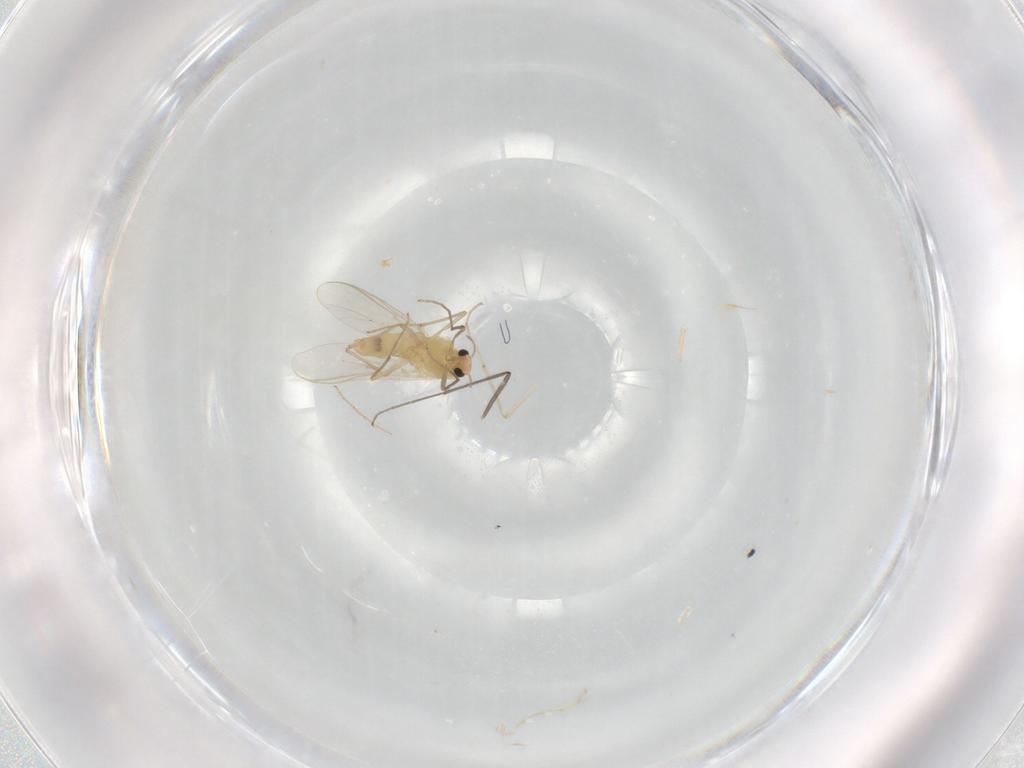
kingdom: Animalia
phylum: Arthropoda
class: Insecta
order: Diptera
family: Chironomidae
